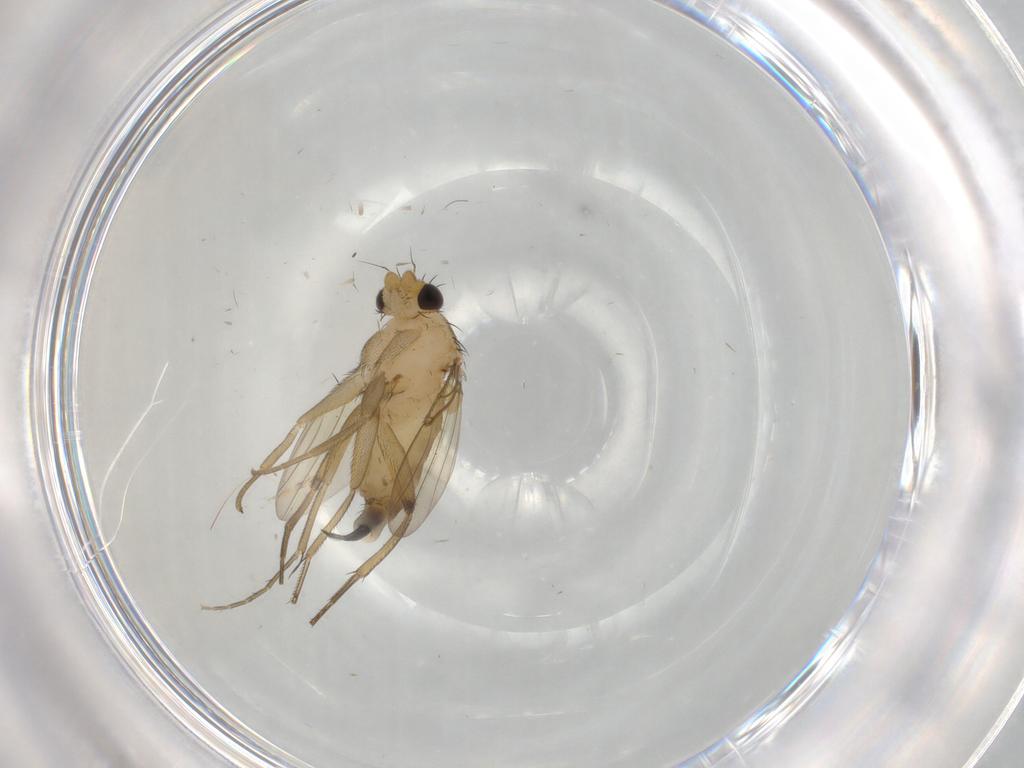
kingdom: Animalia
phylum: Arthropoda
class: Insecta
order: Diptera
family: Phoridae
